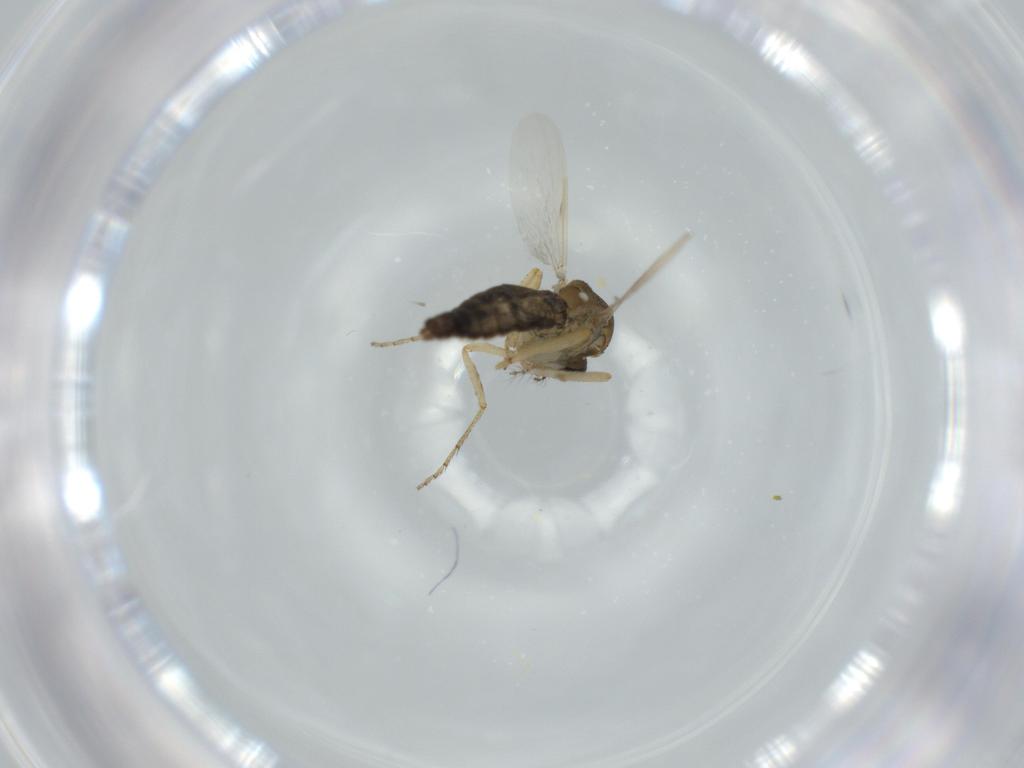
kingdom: Animalia
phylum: Arthropoda
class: Insecta
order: Diptera
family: Ceratopogonidae
